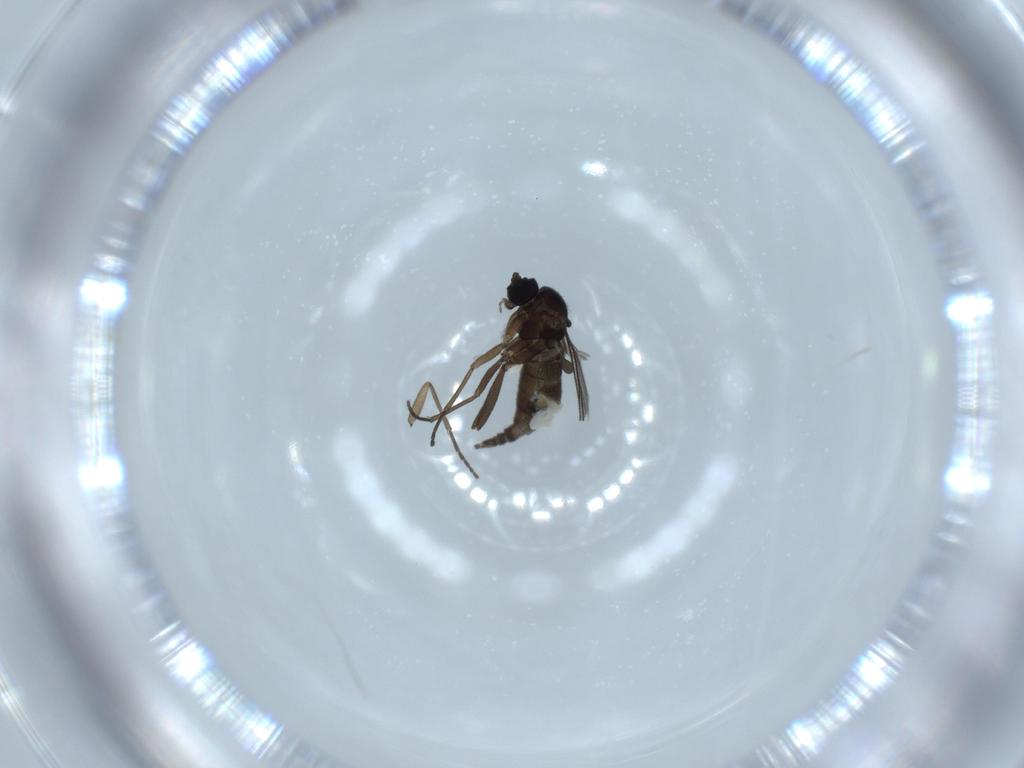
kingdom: Animalia
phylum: Arthropoda
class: Insecta
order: Diptera
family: Sciaridae
